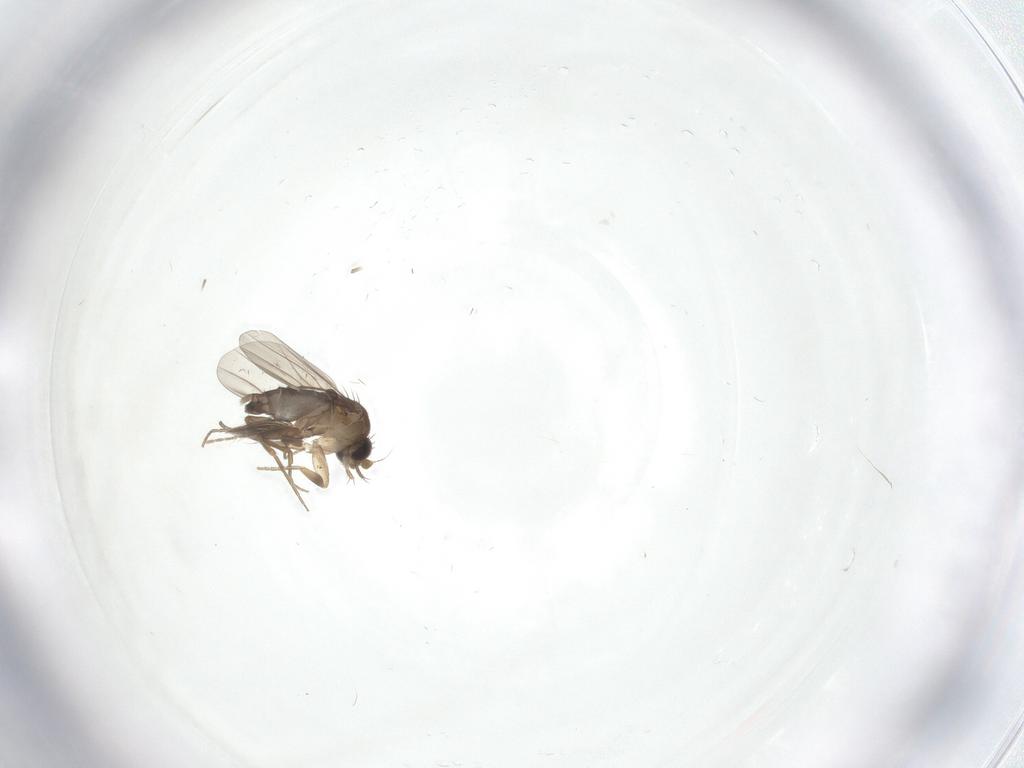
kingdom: Animalia
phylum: Arthropoda
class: Insecta
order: Diptera
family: Phoridae
